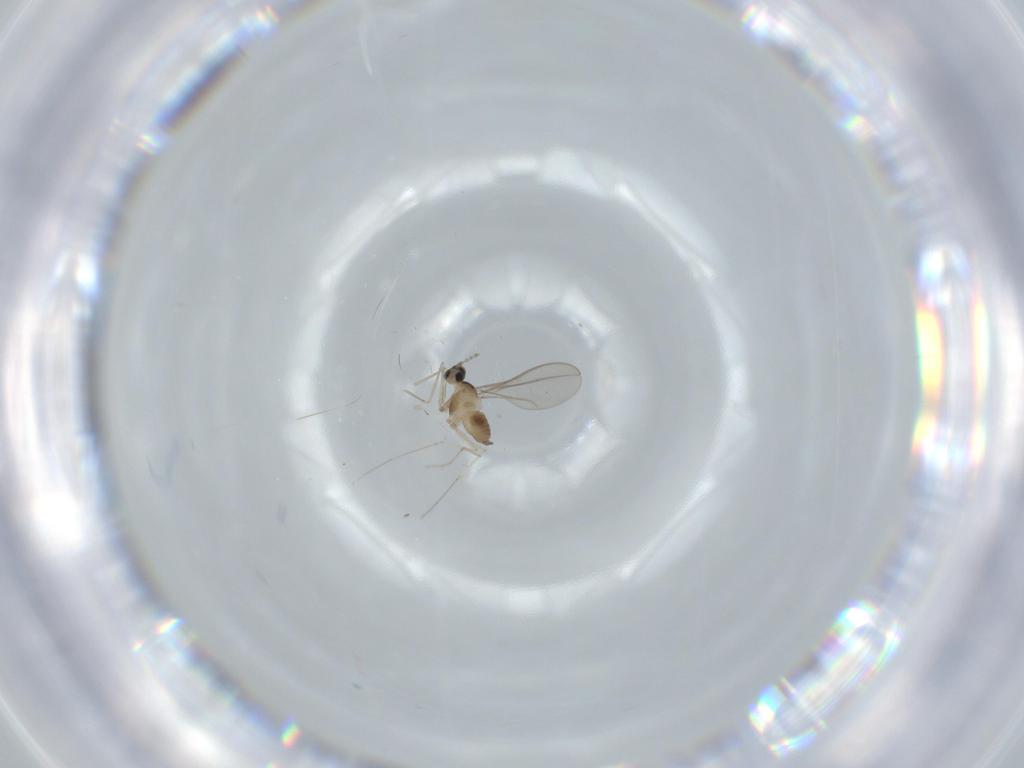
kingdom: Animalia
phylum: Arthropoda
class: Insecta
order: Diptera
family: Cecidomyiidae
